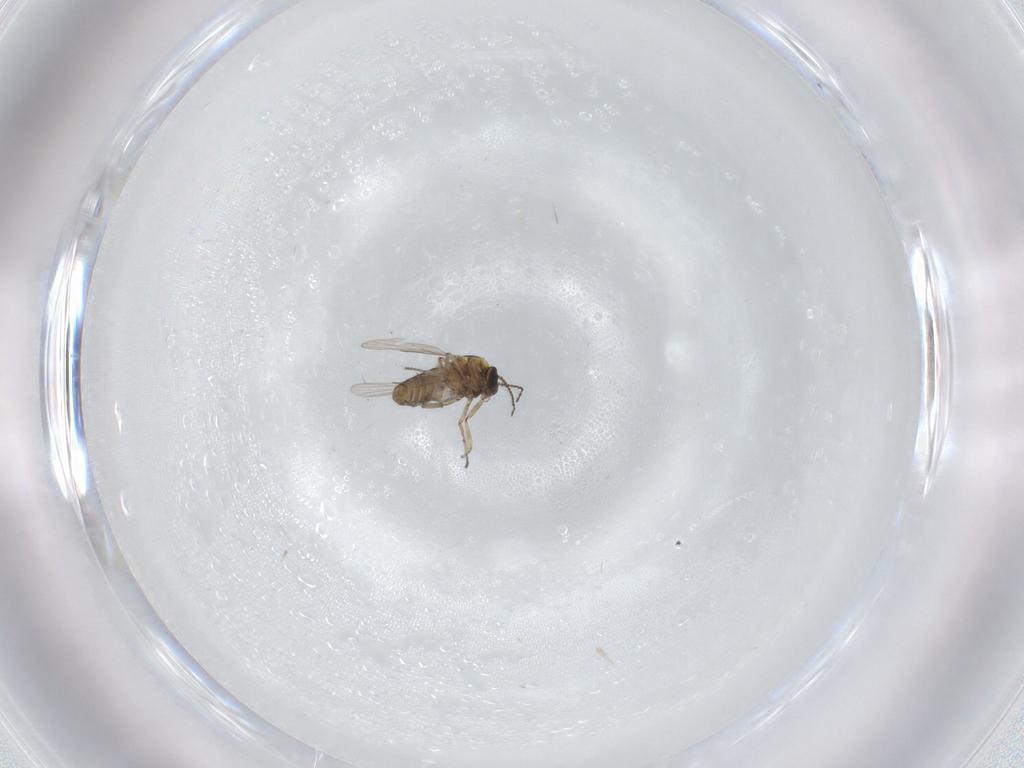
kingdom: Animalia
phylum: Arthropoda
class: Insecta
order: Diptera
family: Ceratopogonidae
